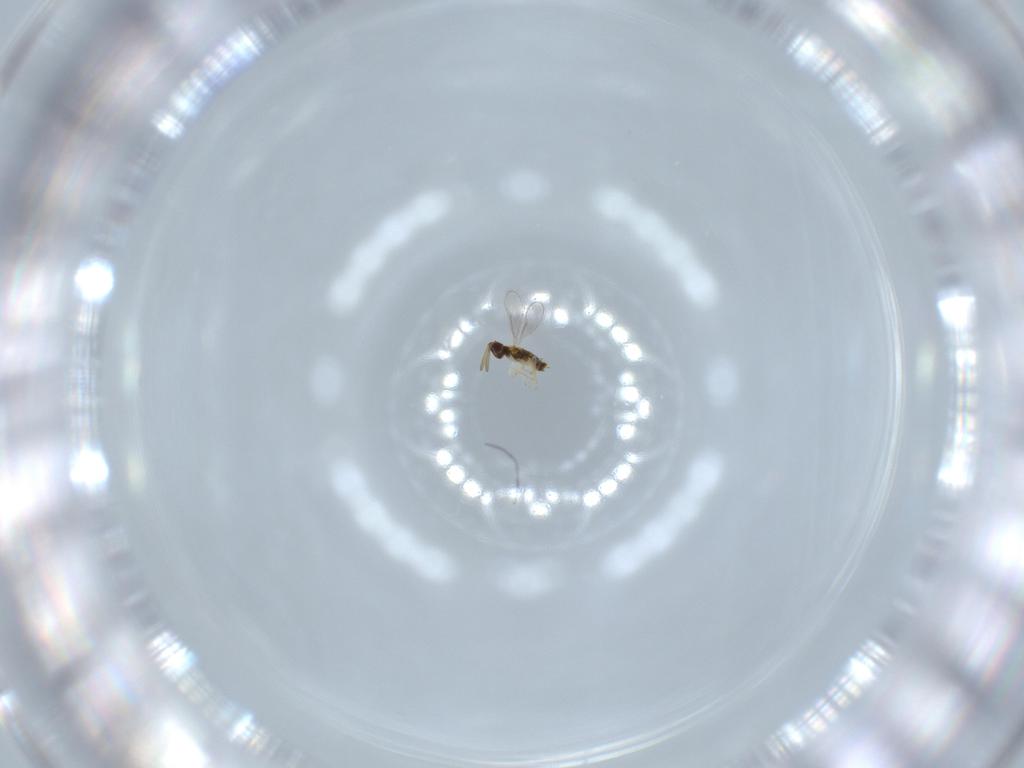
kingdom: Animalia
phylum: Arthropoda
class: Insecta
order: Hymenoptera
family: Aphelinidae
